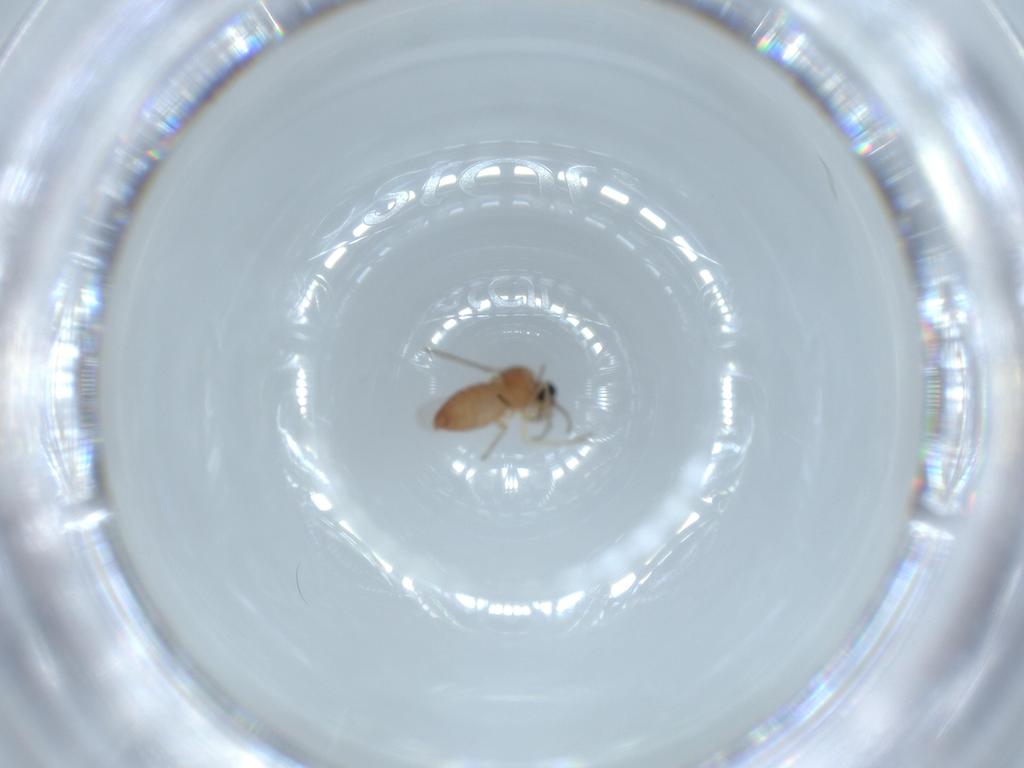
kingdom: Animalia
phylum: Arthropoda
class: Insecta
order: Diptera
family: Ceratopogonidae
